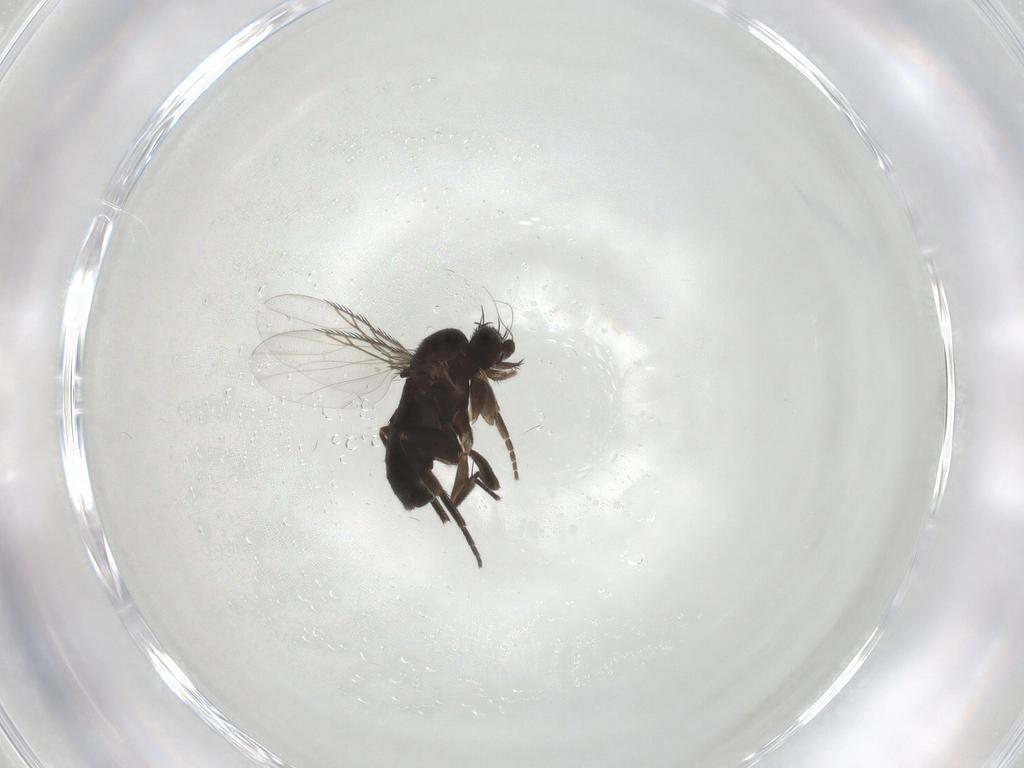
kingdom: Animalia
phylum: Arthropoda
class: Insecta
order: Diptera
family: Phoridae
